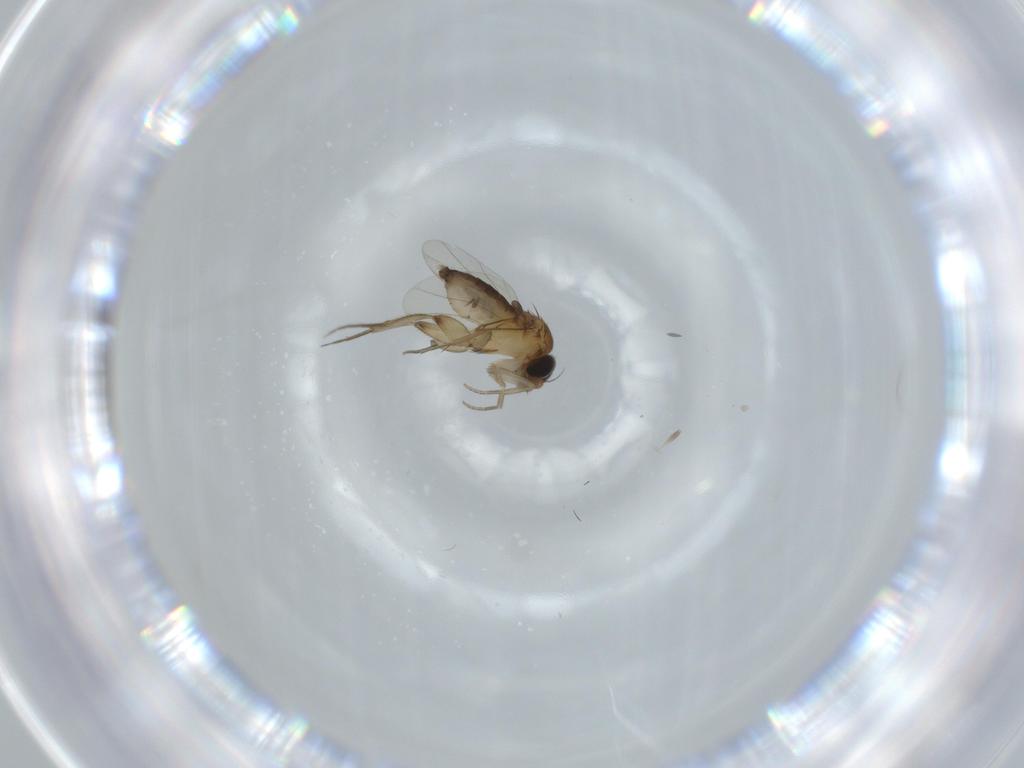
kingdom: Animalia
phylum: Arthropoda
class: Insecta
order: Diptera
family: Phoridae
